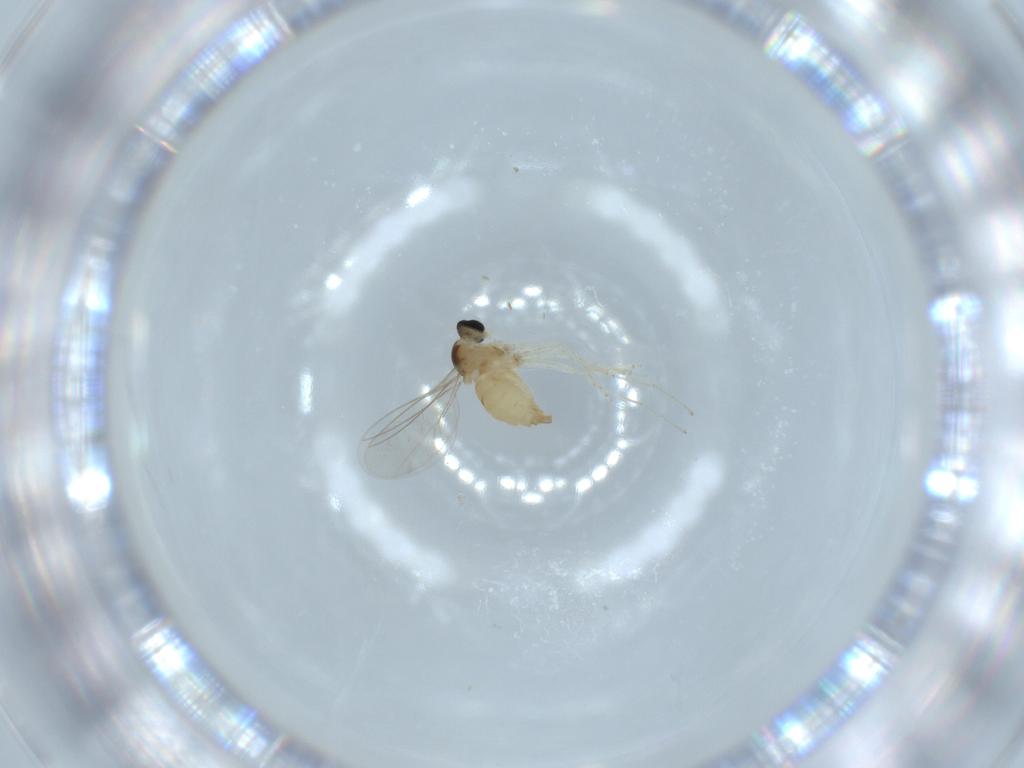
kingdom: Animalia
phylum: Arthropoda
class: Insecta
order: Diptera
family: Cecidomyiidae
